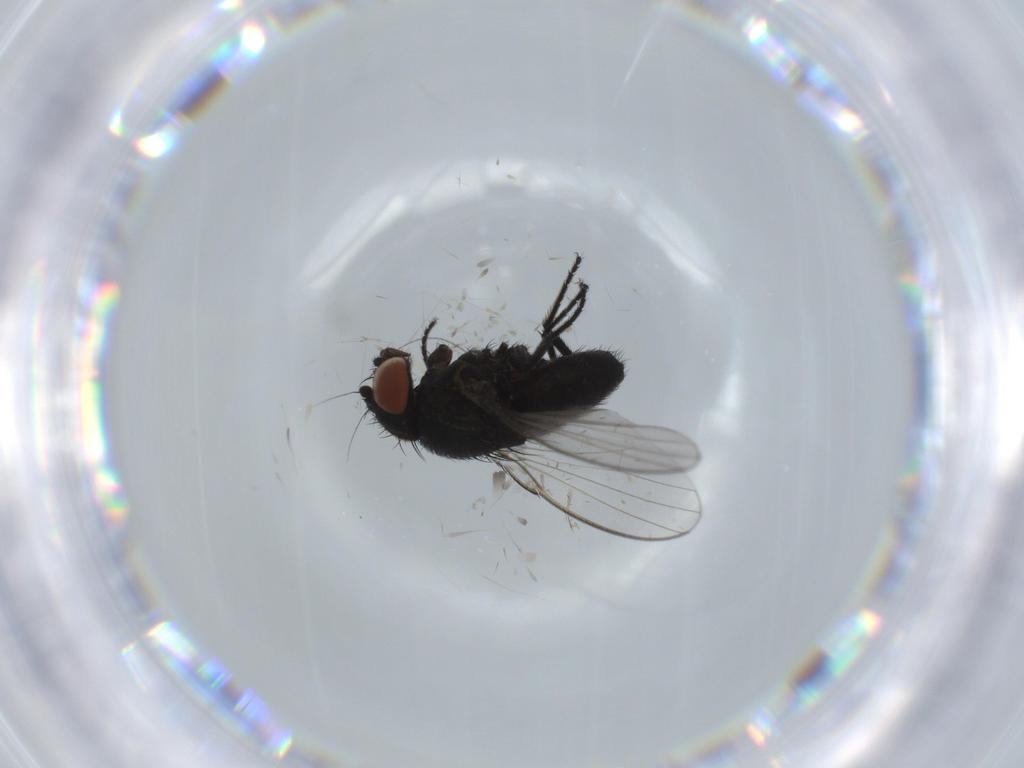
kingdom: Animalia
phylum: Arthropoda
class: Insecta
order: Diptera
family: Milichiidae
